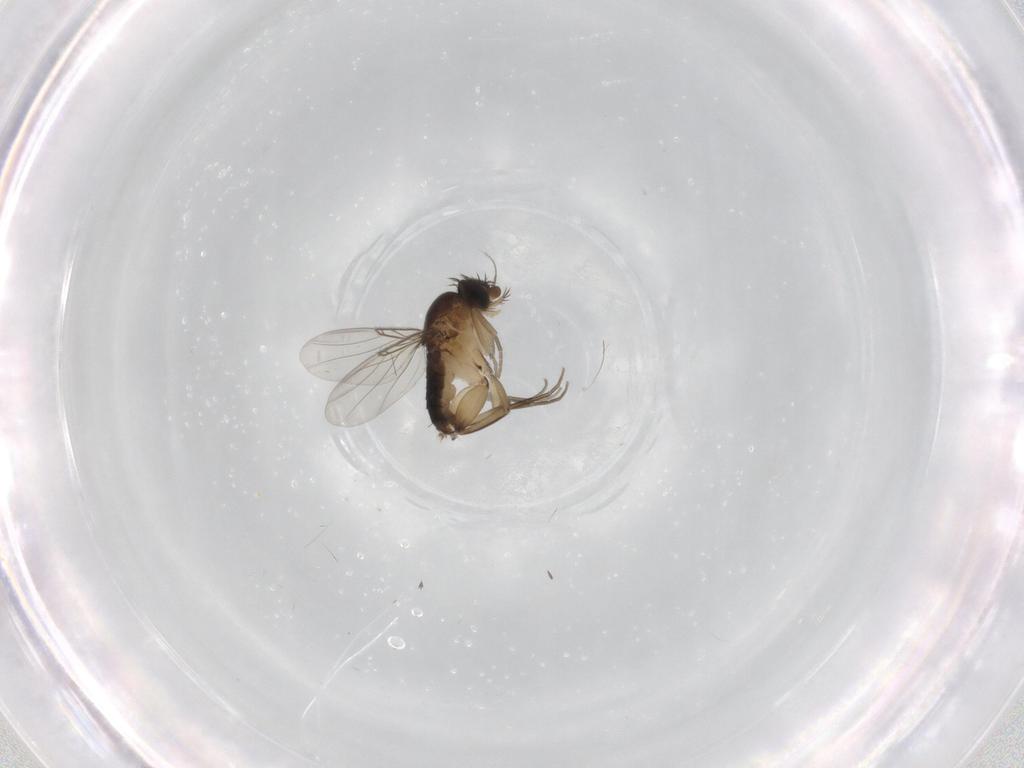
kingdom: Animalia
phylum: Arthropoda
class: Insecta
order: Diptera
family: Phoridae
